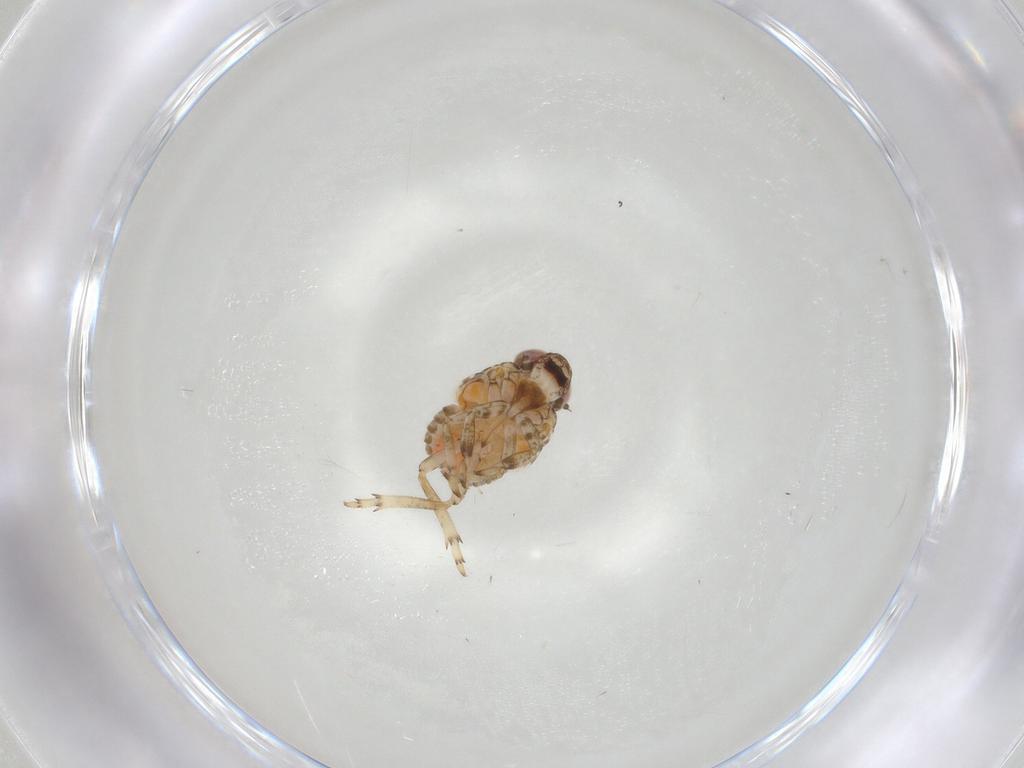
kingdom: Animalia
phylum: Arthropoda
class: Insecta
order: Hemiptera
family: Issidae
